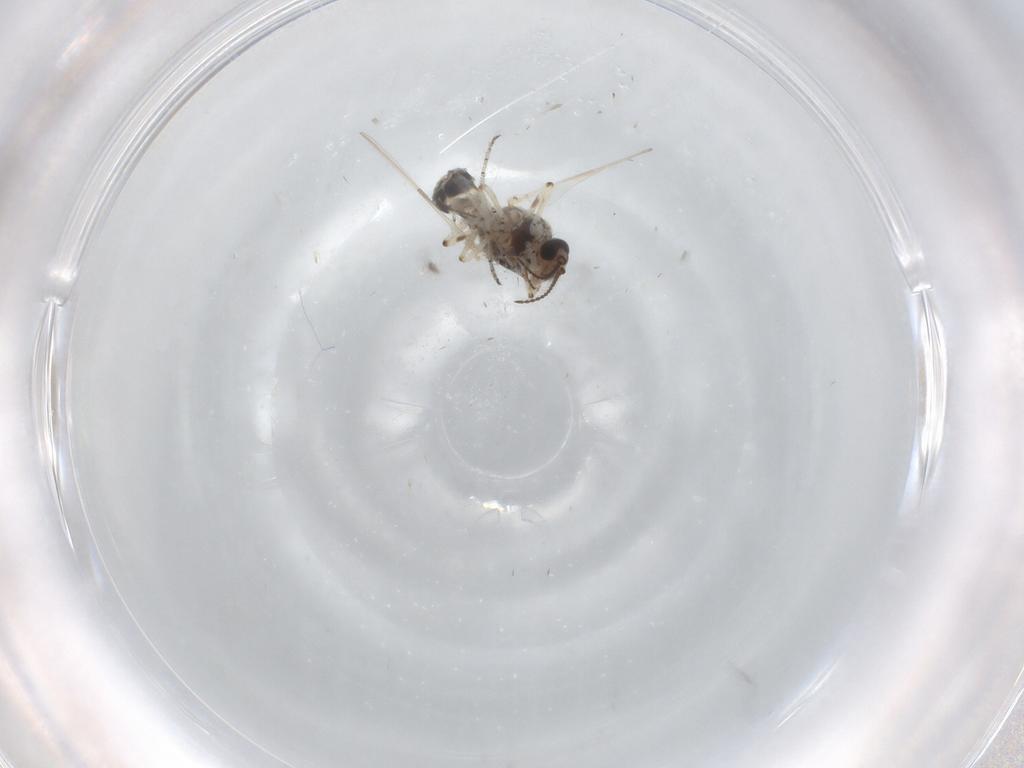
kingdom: Animalia
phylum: Arthropoda
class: Insecta
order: Diptera
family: Ceratopogonidae
